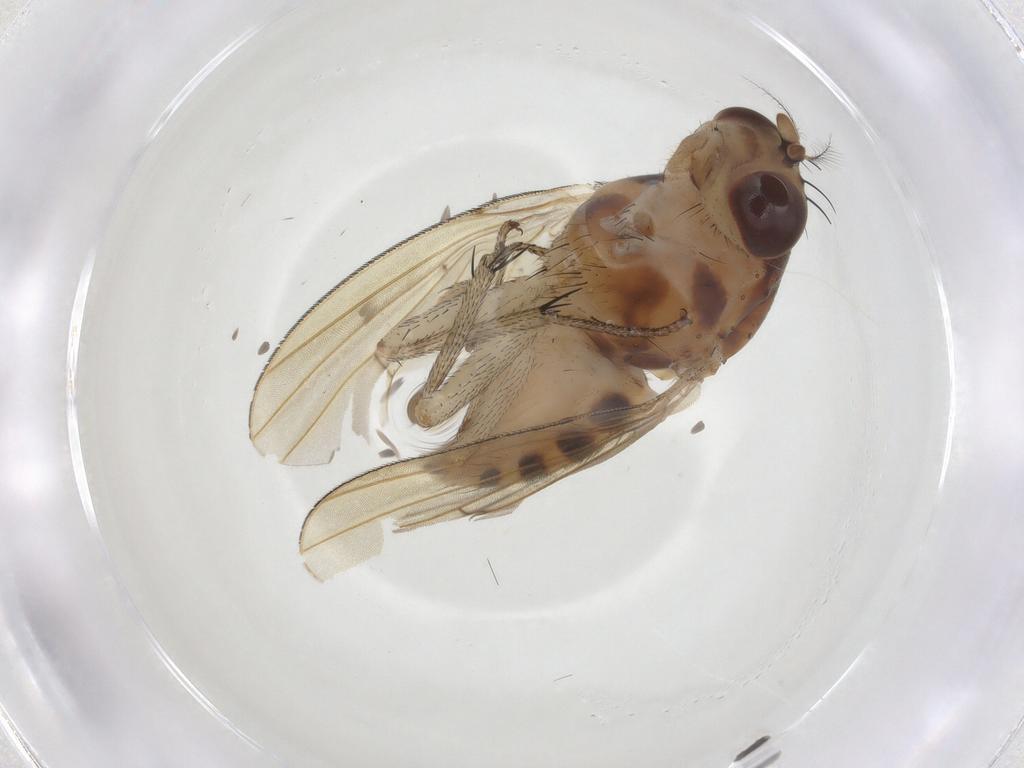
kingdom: Animalia
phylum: Arthropoda
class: Insecta
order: Diptera
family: Lauxaniidae
